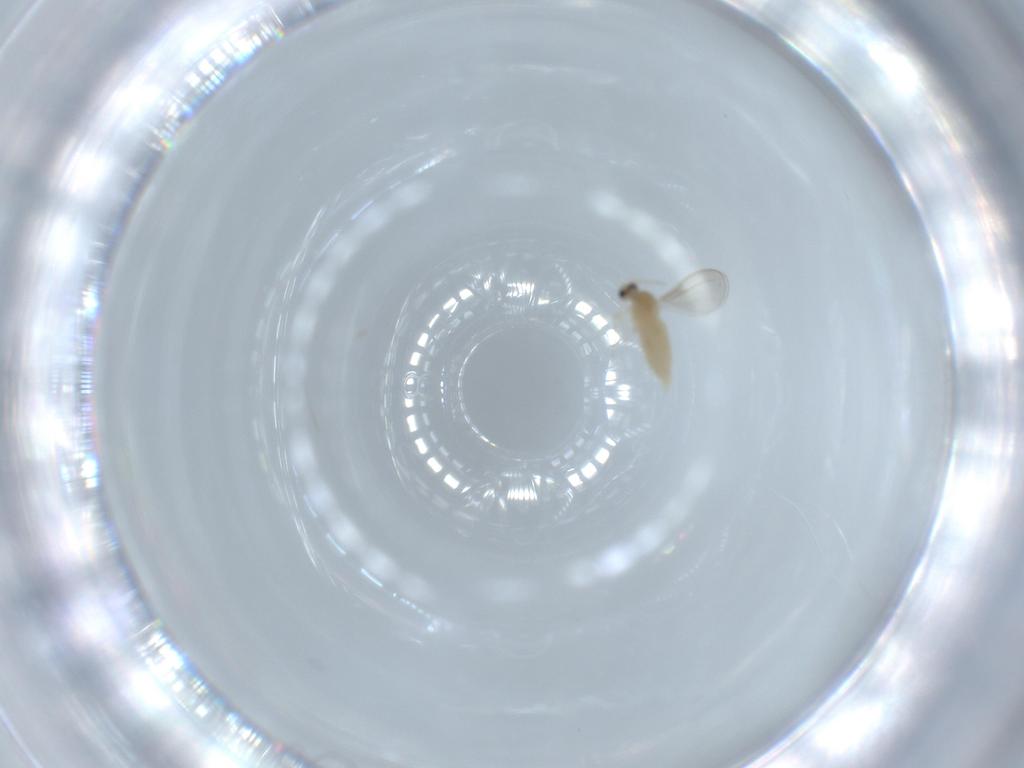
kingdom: Animalia
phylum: Arthropoda
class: Insecta
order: Diptera
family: Cecidomyiidae
